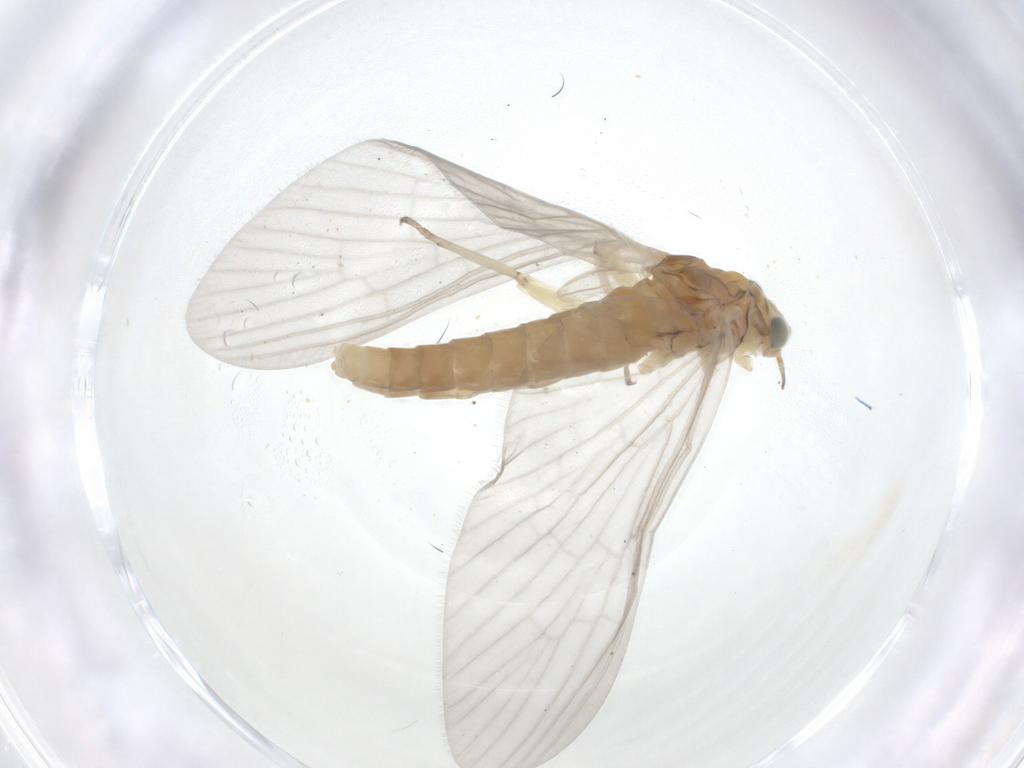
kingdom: Animalia
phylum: Arthropoda
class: Insecta
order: Ephemeroptera
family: Baetidae
